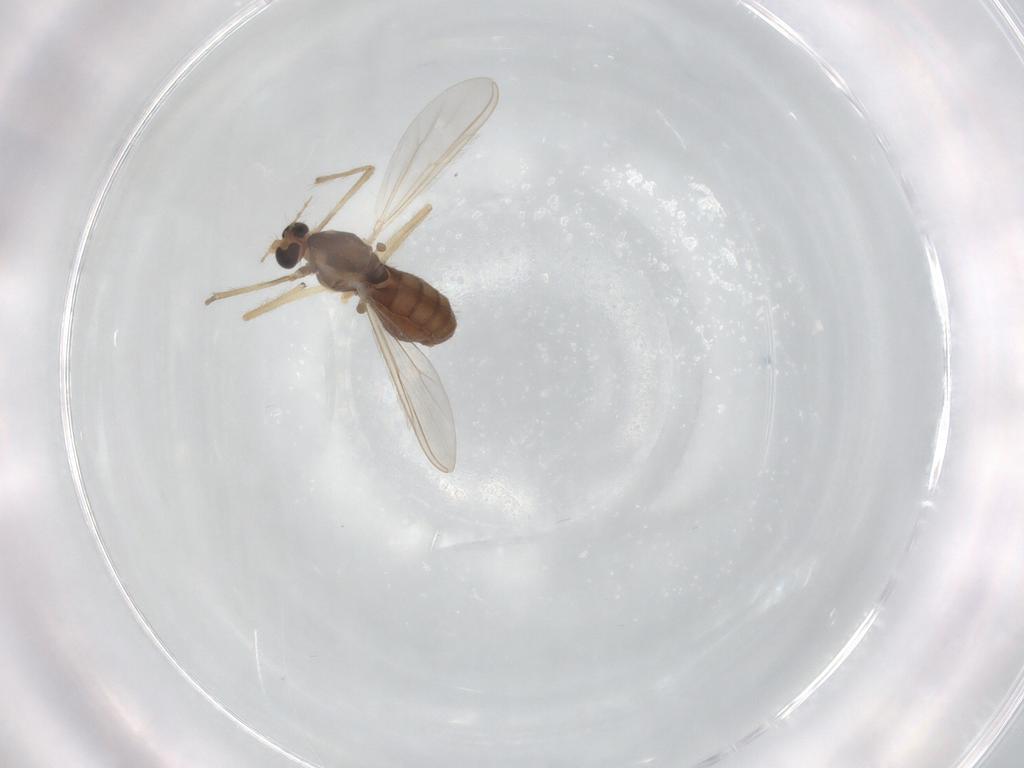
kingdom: Animalia
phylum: Arthropoda
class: Insecta
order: Diptera
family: Chironomidae
